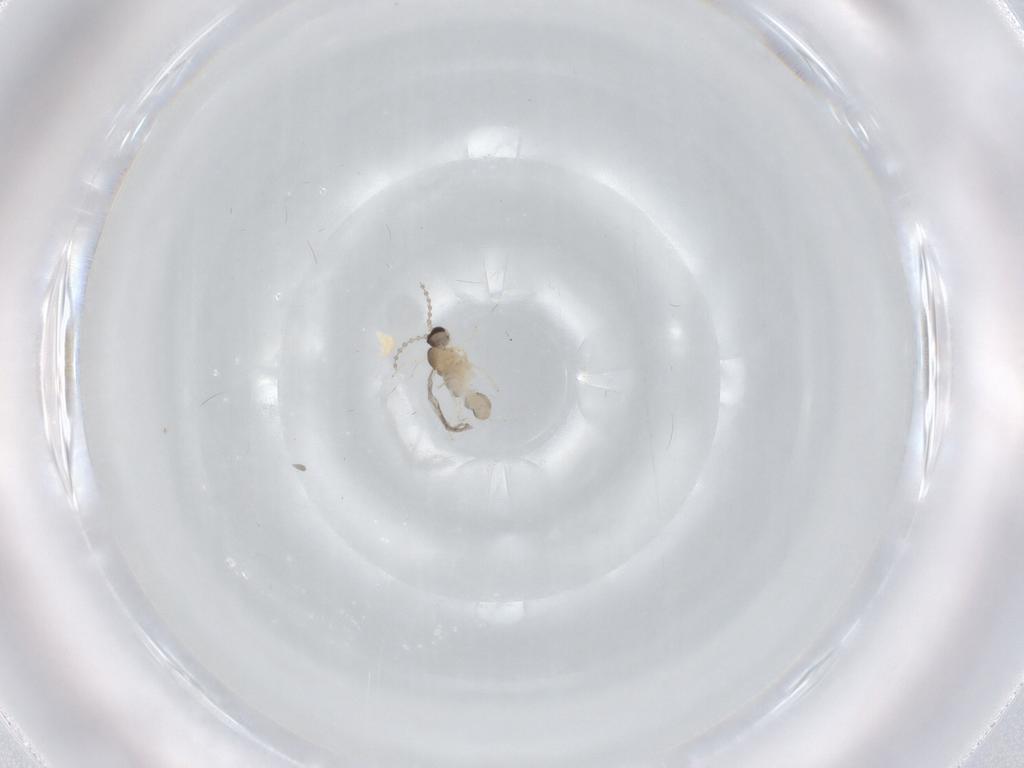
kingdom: Animalia
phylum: Arthropoda
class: Insecta
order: Diptera
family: Cecidomyiidae
